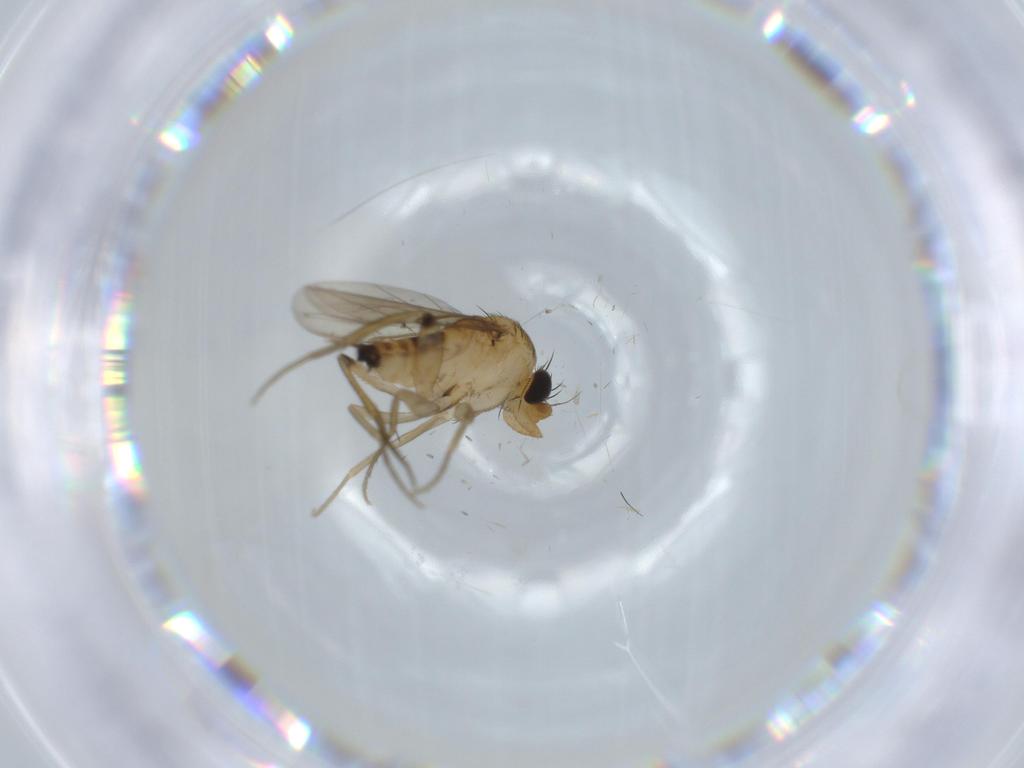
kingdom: Animalia
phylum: Arthropoda
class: Insecta
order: Diptera
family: Phoridae
